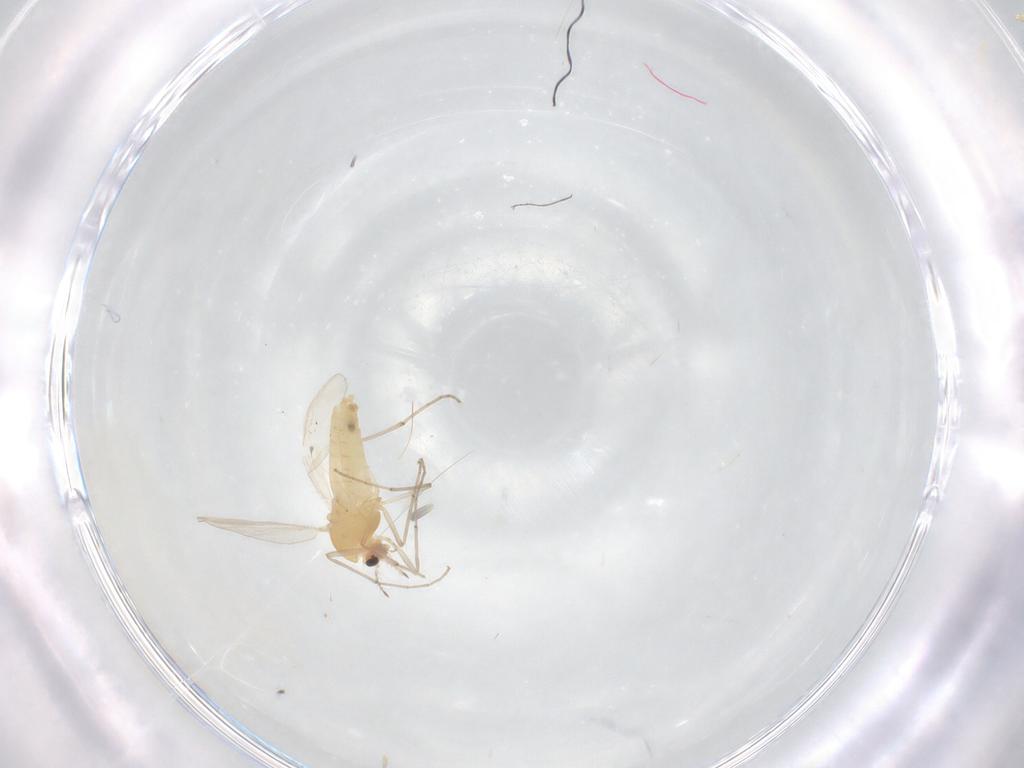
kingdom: Animalia
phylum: Arthropoda
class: Insecta
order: Diptera
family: Chironomidae
